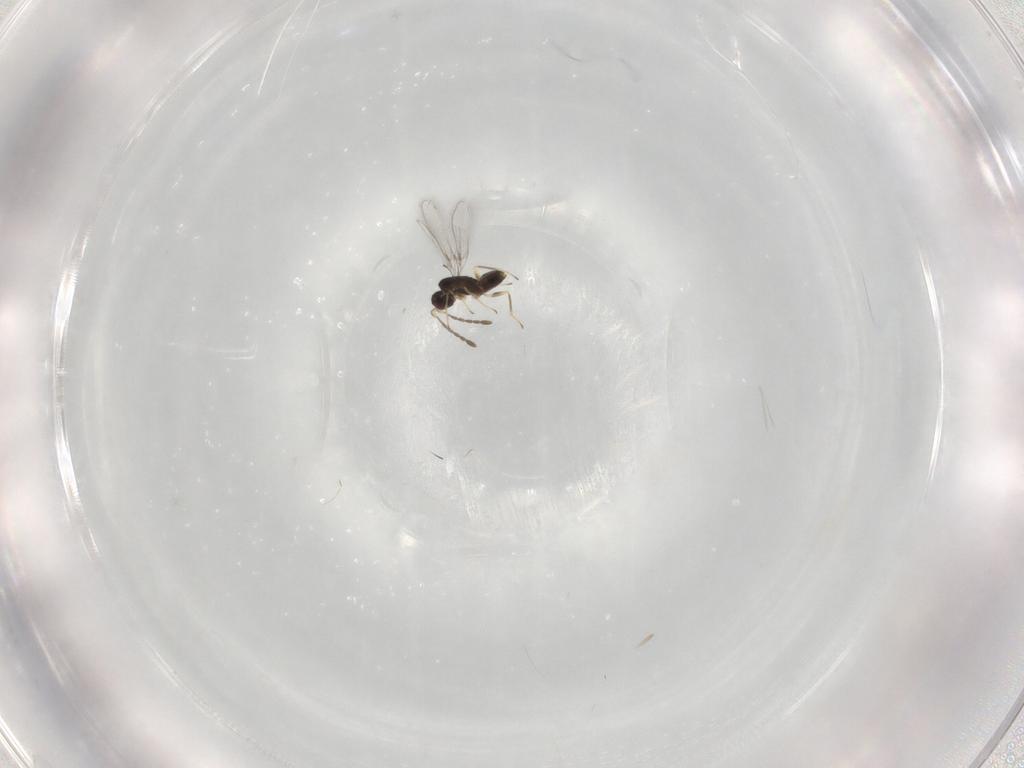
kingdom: Animalia
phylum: Arthropoda
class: Insecta
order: Hymenoptera
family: Mymaridae
